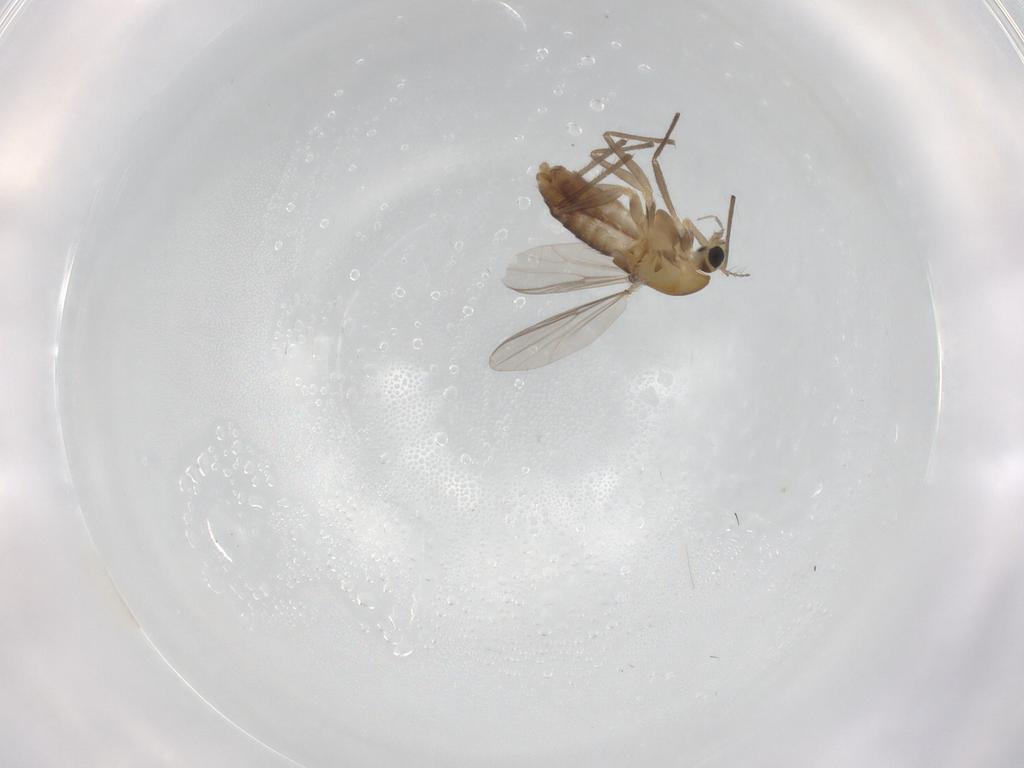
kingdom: Animalia
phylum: Arthropoda
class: Insecta
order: Diptera
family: Chironomidae
